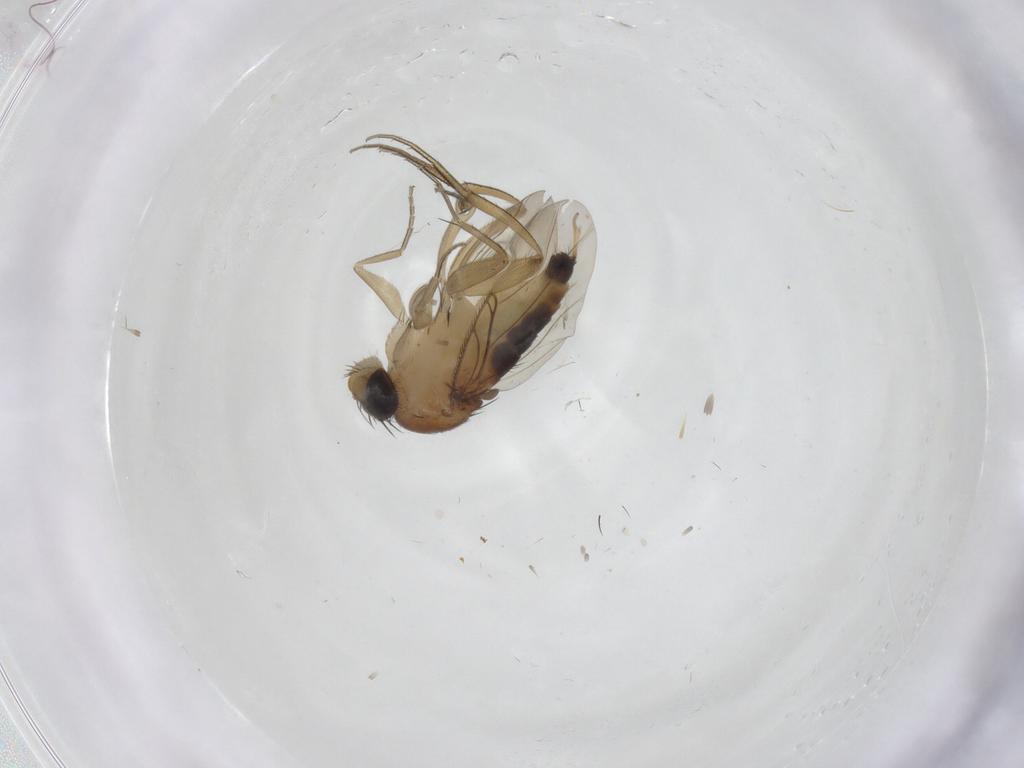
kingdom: Animalia
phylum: Arthropoda
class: Insecta
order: Diptera
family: Phoridae
